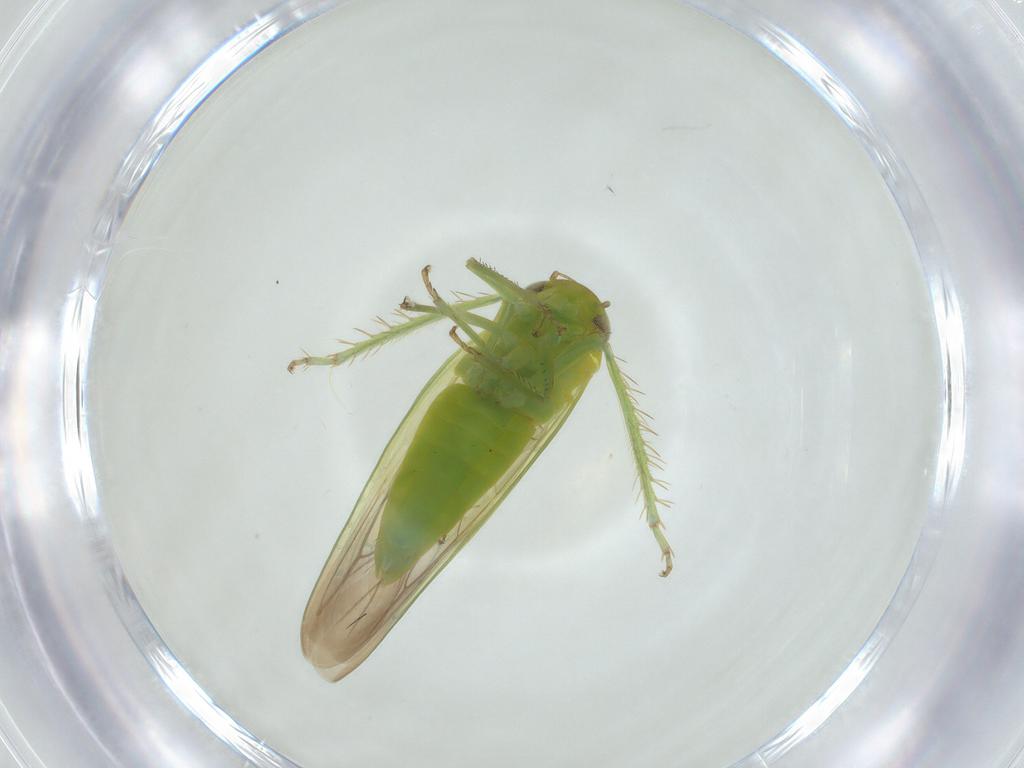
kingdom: Animalia
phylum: Arthropoda
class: Insecta
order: Hemiptera
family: Cicadellidae
